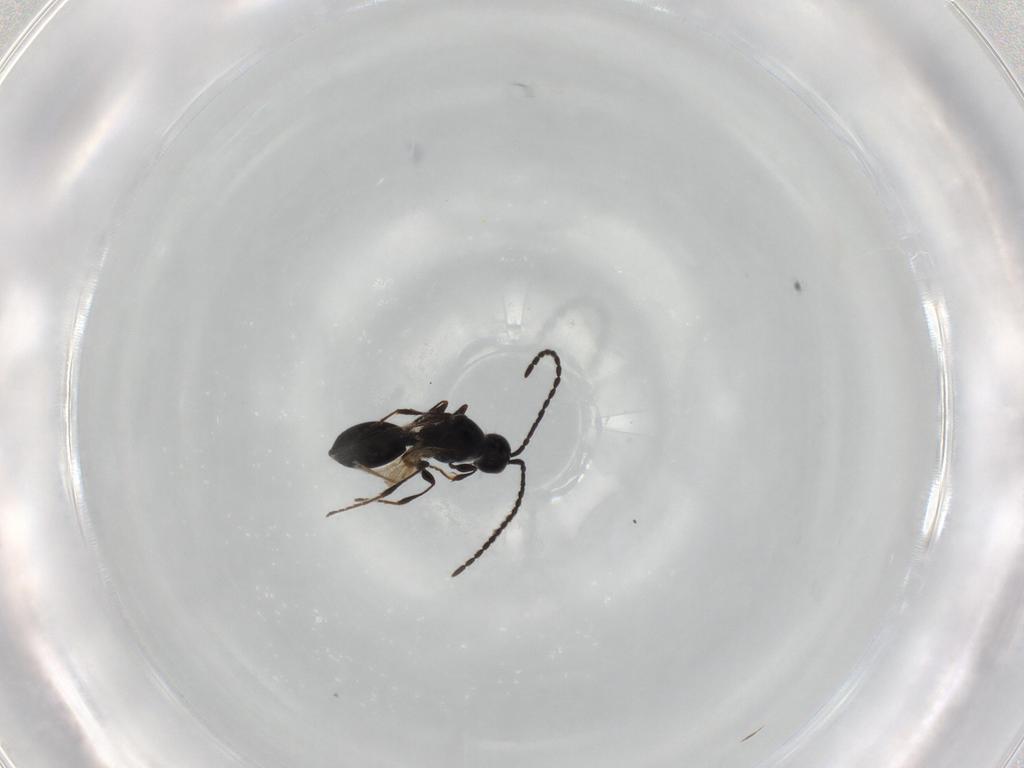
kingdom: Animalia
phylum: Arthropoda
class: Insecta
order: Hymenoptera
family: Diapriidae
